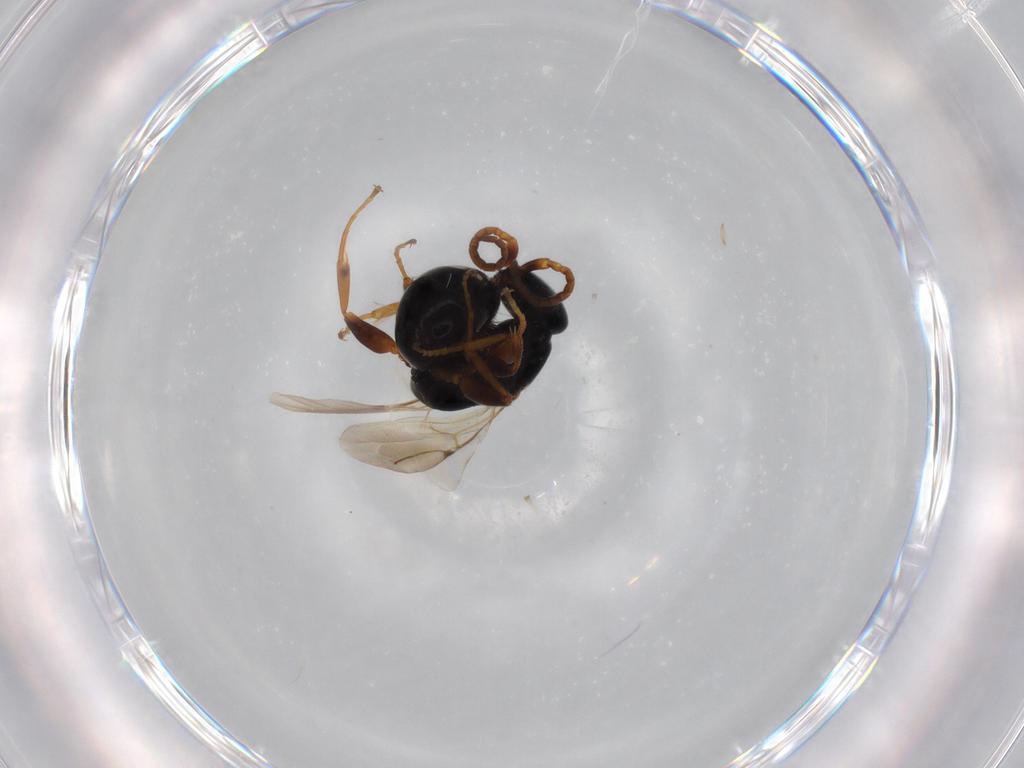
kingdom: Animalia
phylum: Arthropoda
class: Insecta
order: Hymenoptera
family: Bethylidae
